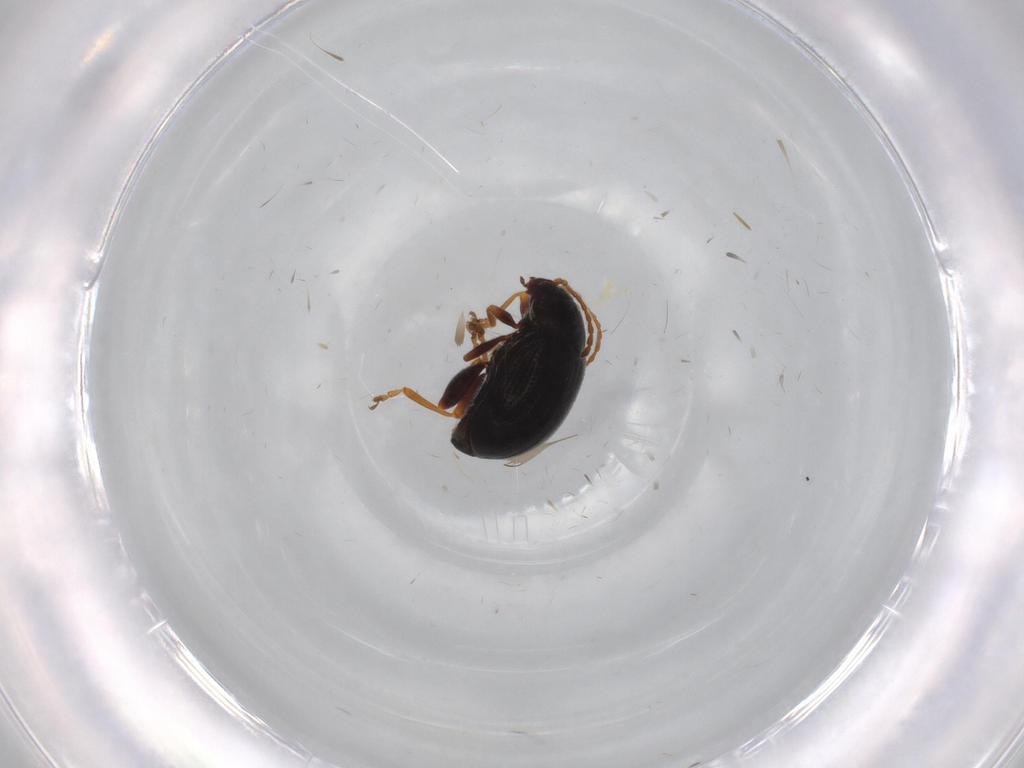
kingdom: Animalia
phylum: Arthropoda
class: Insecta
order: Coleoptera
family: Chrysomelidae
